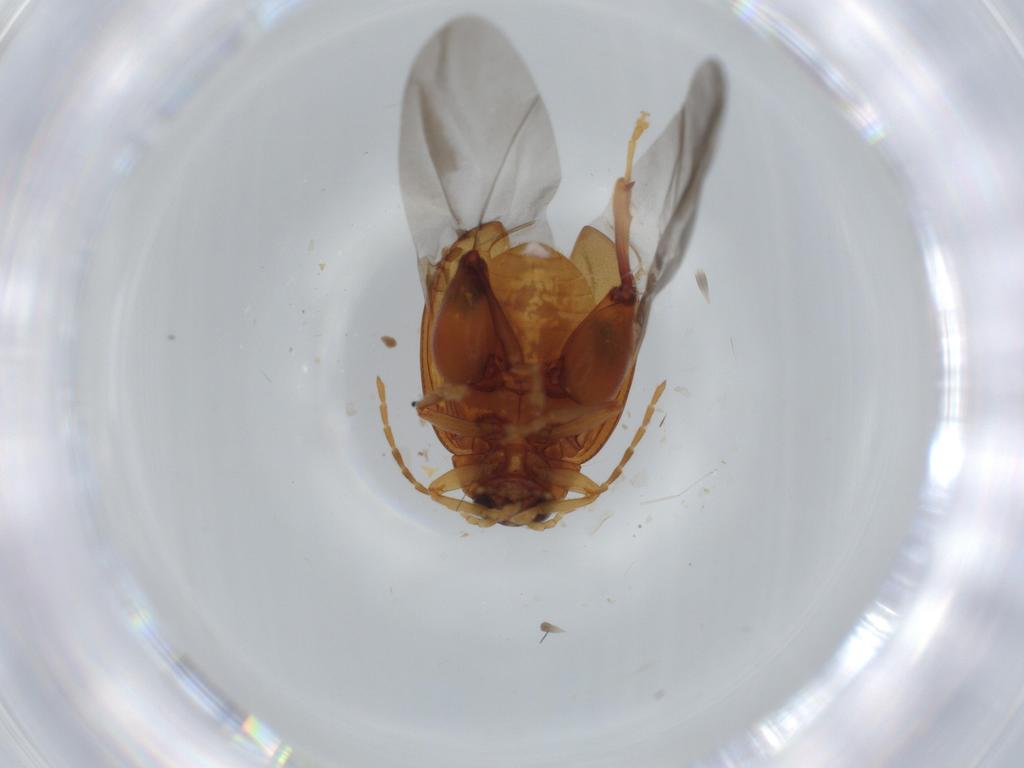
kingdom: Animalia
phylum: Arthropoda
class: Insecta
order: Coleoptera
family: Chrysomelidae
